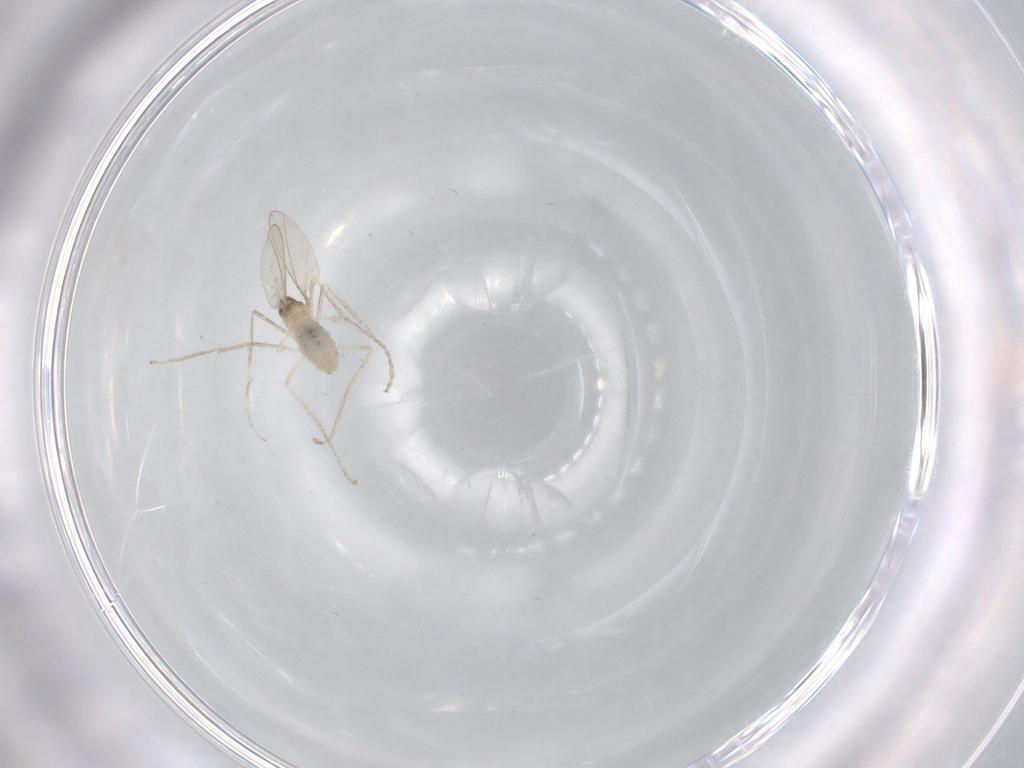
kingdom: Animalia
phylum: Arthropoda
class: Insecta
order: Diptera
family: Cecidomyiidae
